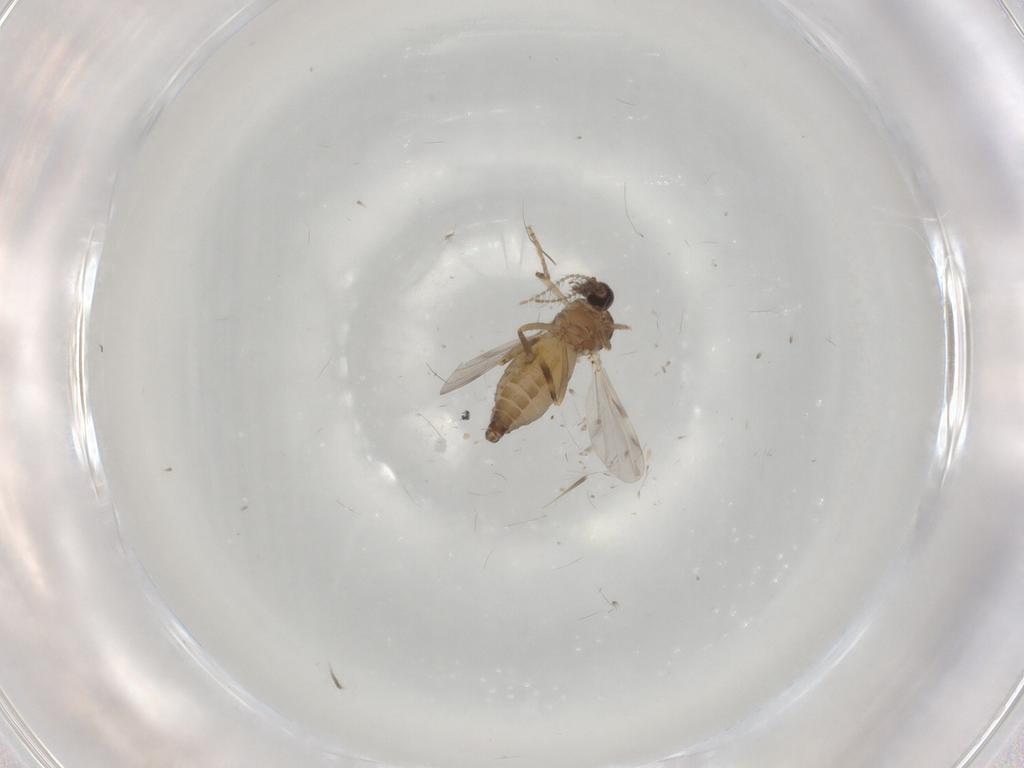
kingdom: Animalia
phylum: Arthropoda
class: Insecta
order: Diptera
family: Ceratopogonidae
